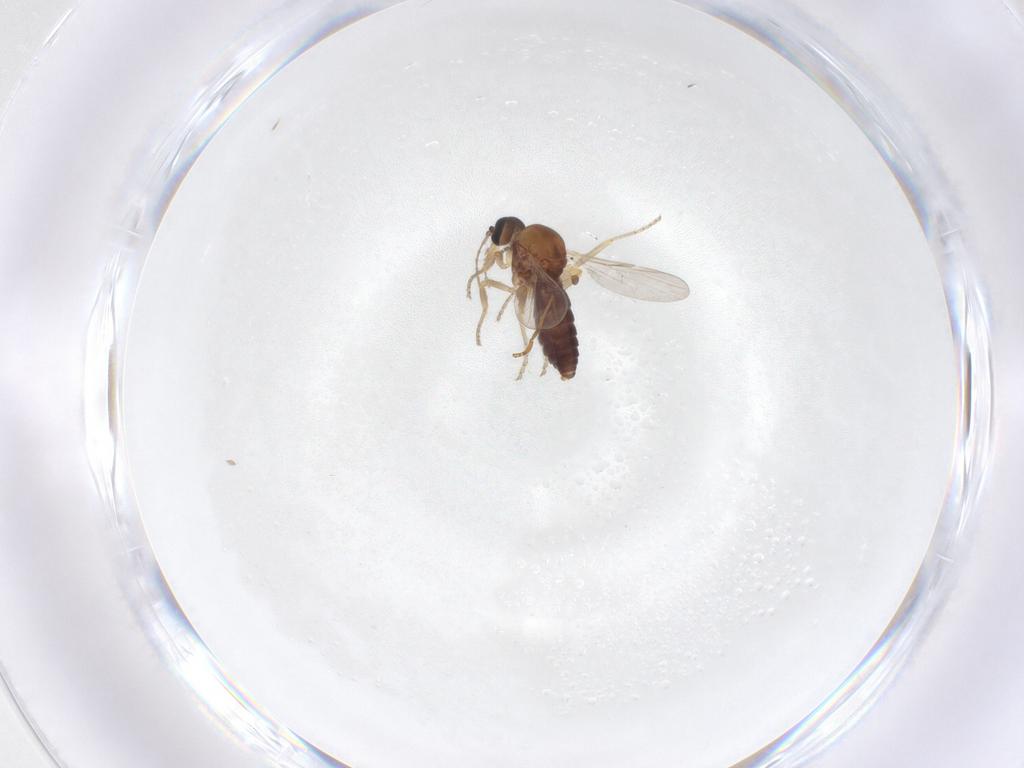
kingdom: Animalia
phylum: Arthropoda
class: Insecta
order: Diptera
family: Ceratopogonidae
